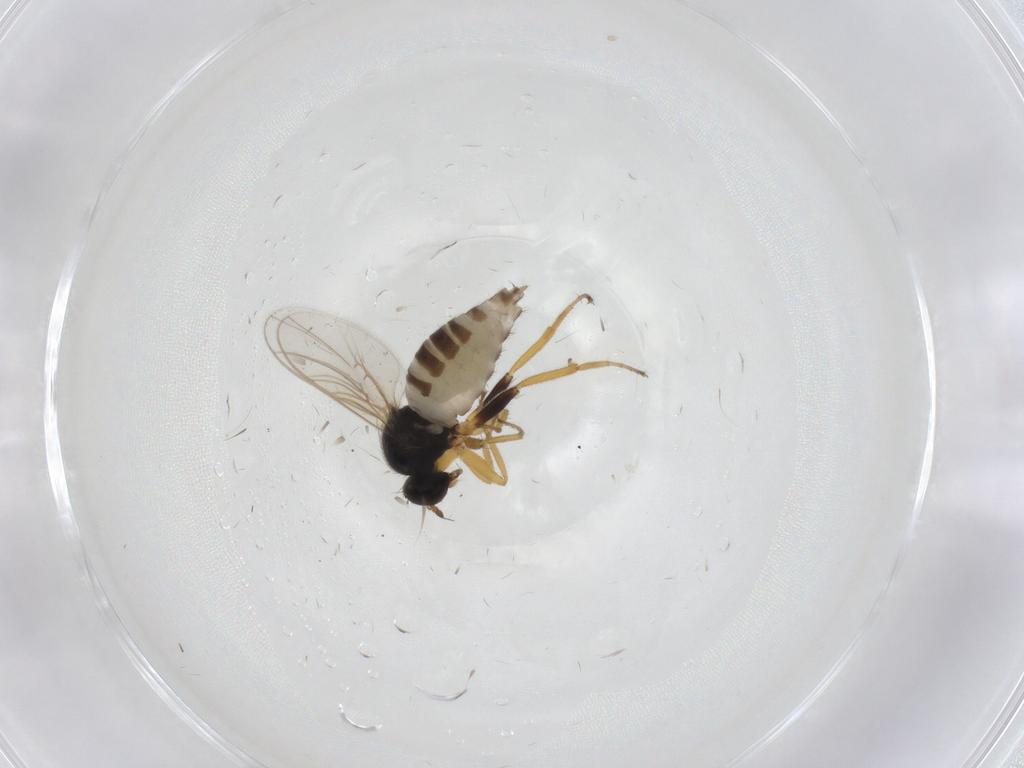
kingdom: Animalia
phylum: Arthropoda
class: Insecta
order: Diptera
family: Hybotidae
